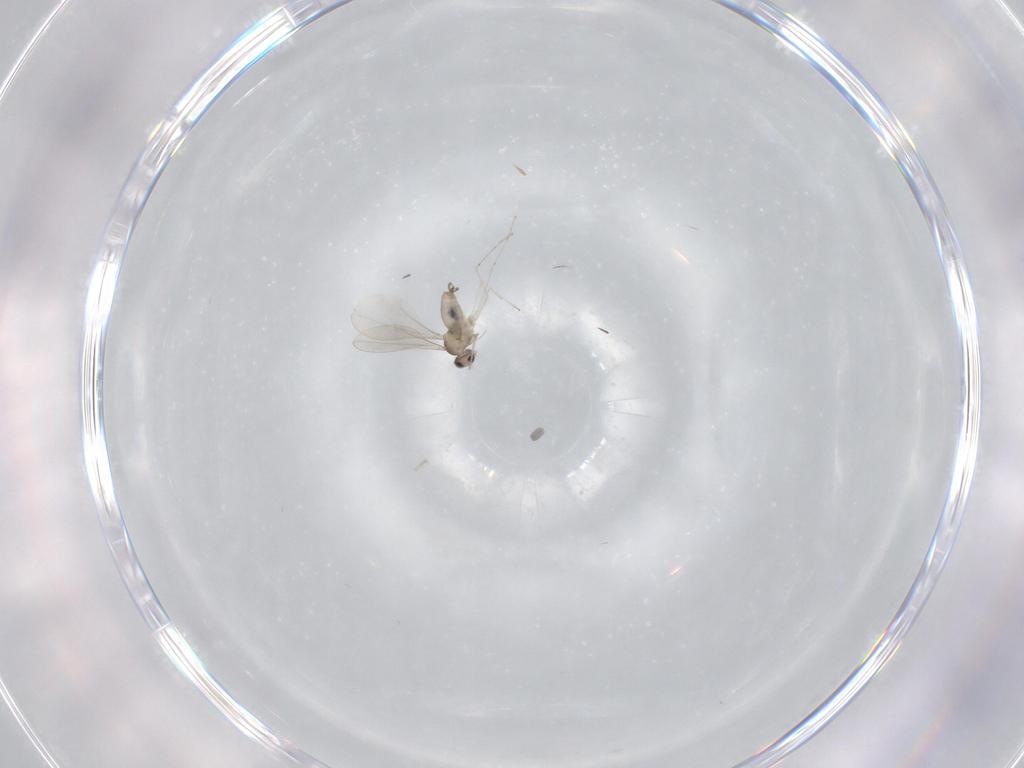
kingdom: Animalia
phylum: Arthropoda
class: Insecta
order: Diptera
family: Cecidomyiidae
